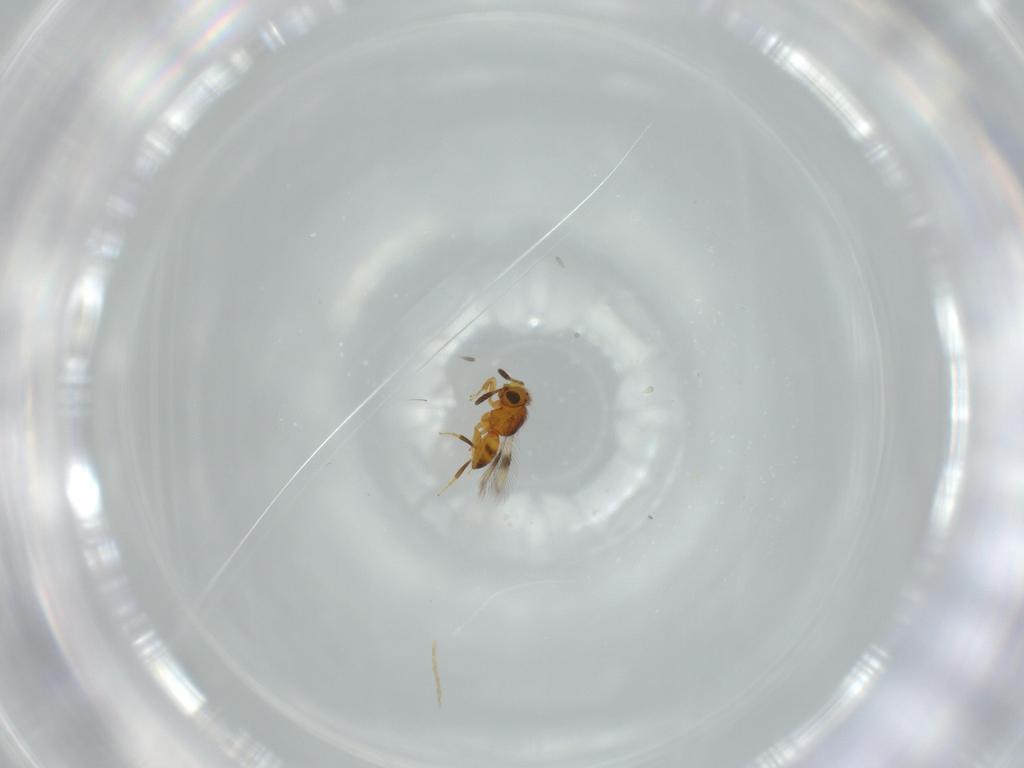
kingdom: Animalia
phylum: Arthropoda
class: Insecta
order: Hymenoptera
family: Scelionidae
